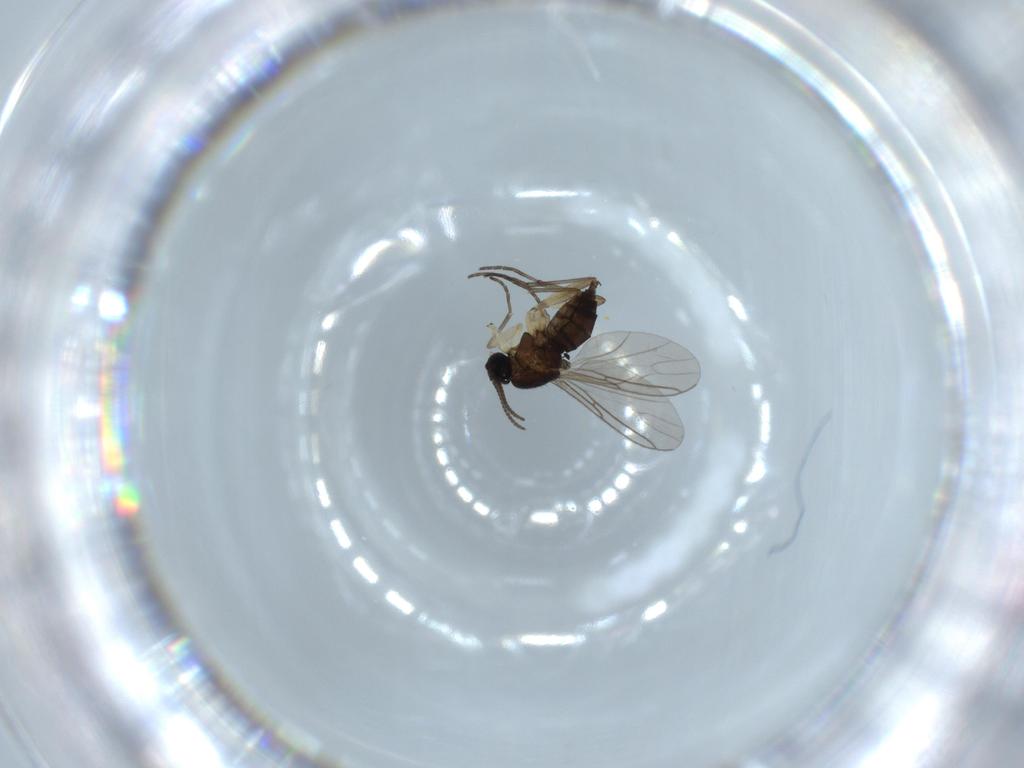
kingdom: Animalia
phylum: Arthropoda
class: Insecta
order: Diptera
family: Sciaridae
